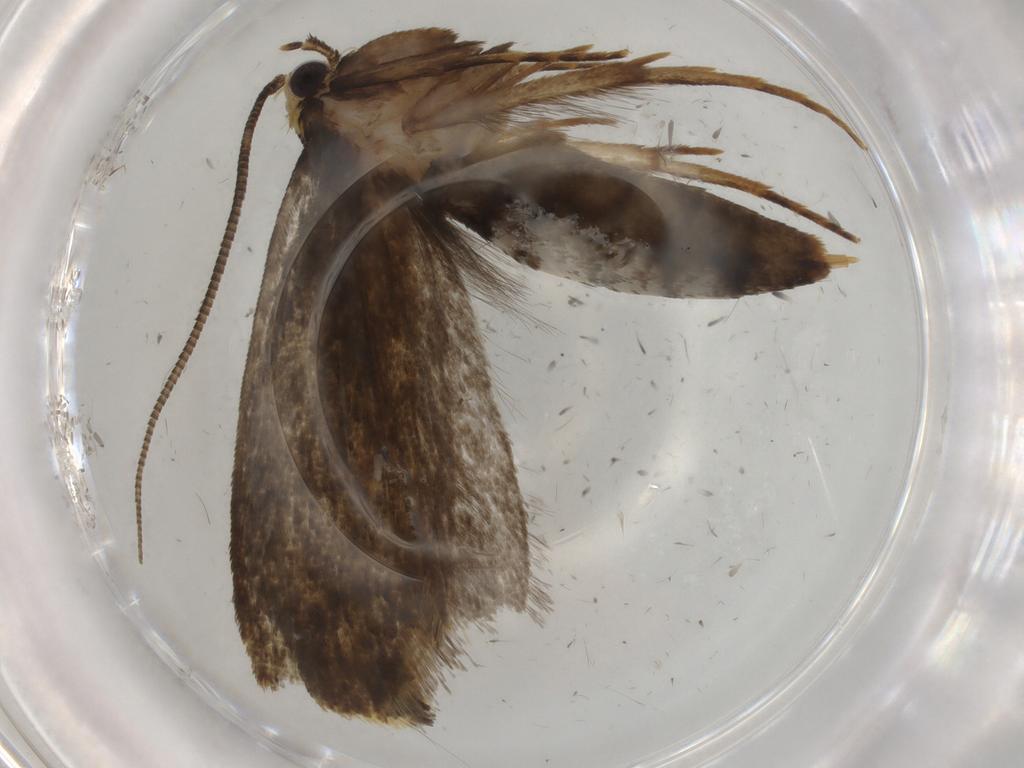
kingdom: Animalia
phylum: Arthropoda
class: Insecta
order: Lepidoptera
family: Tineidae
